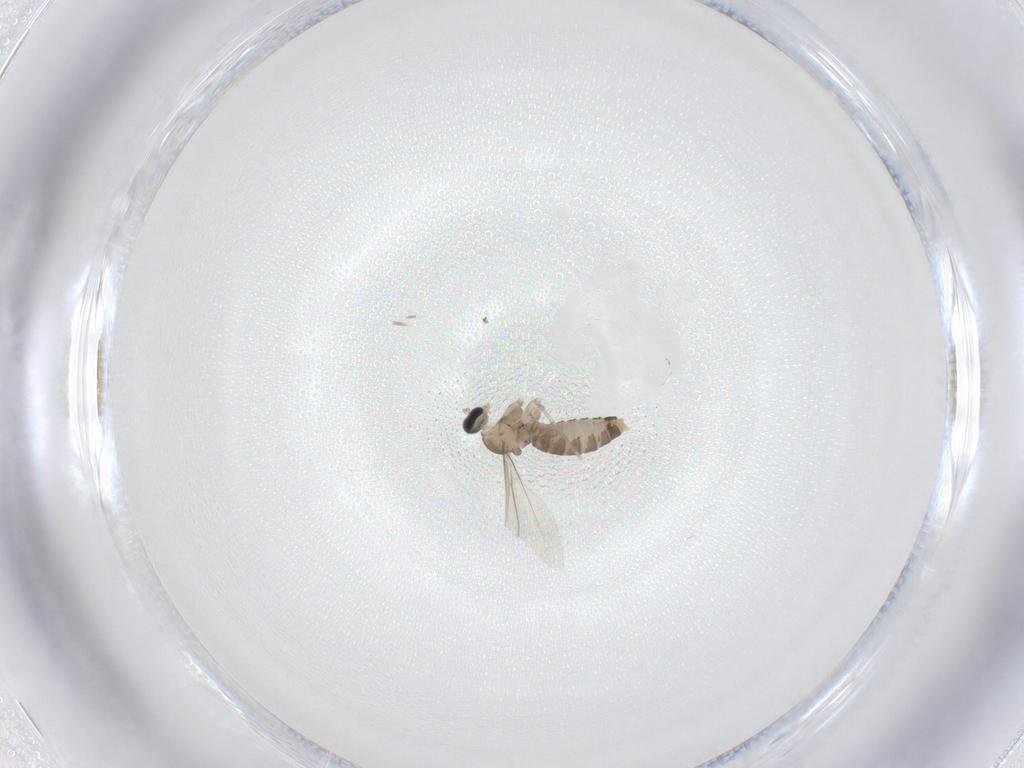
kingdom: Animalia
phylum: Arthropoda
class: Insecta
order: Diptera
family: Cecidomyiidae
